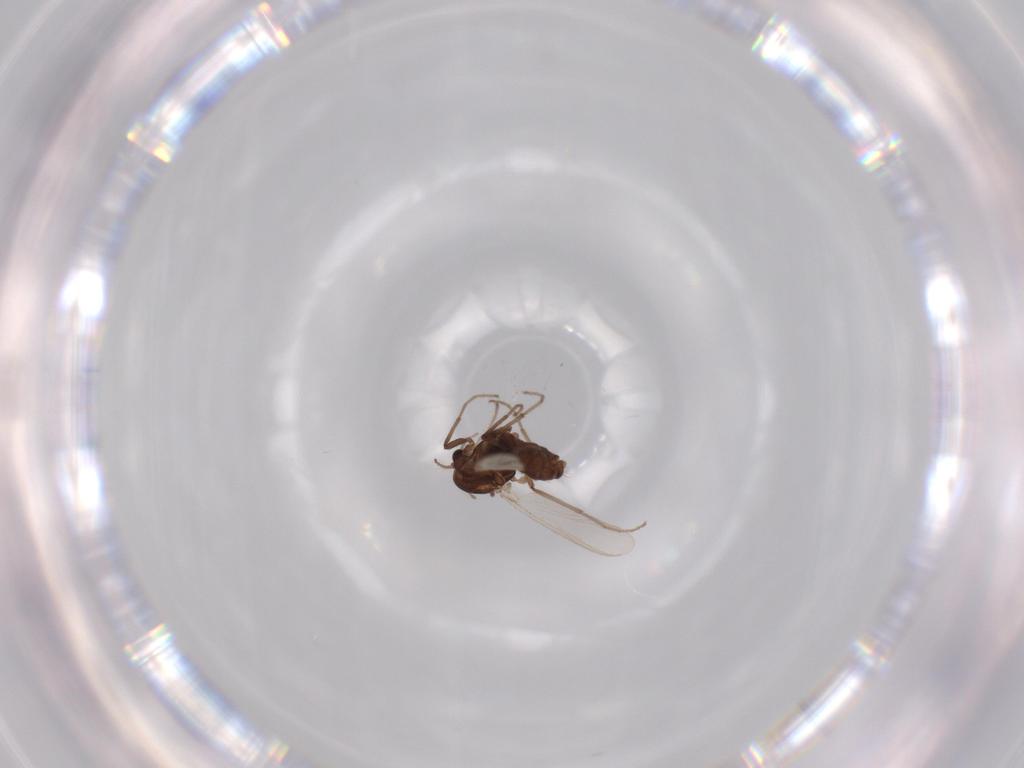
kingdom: Animalia
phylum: Arthropoda
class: Insecta
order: Diptera
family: Chironomidae
